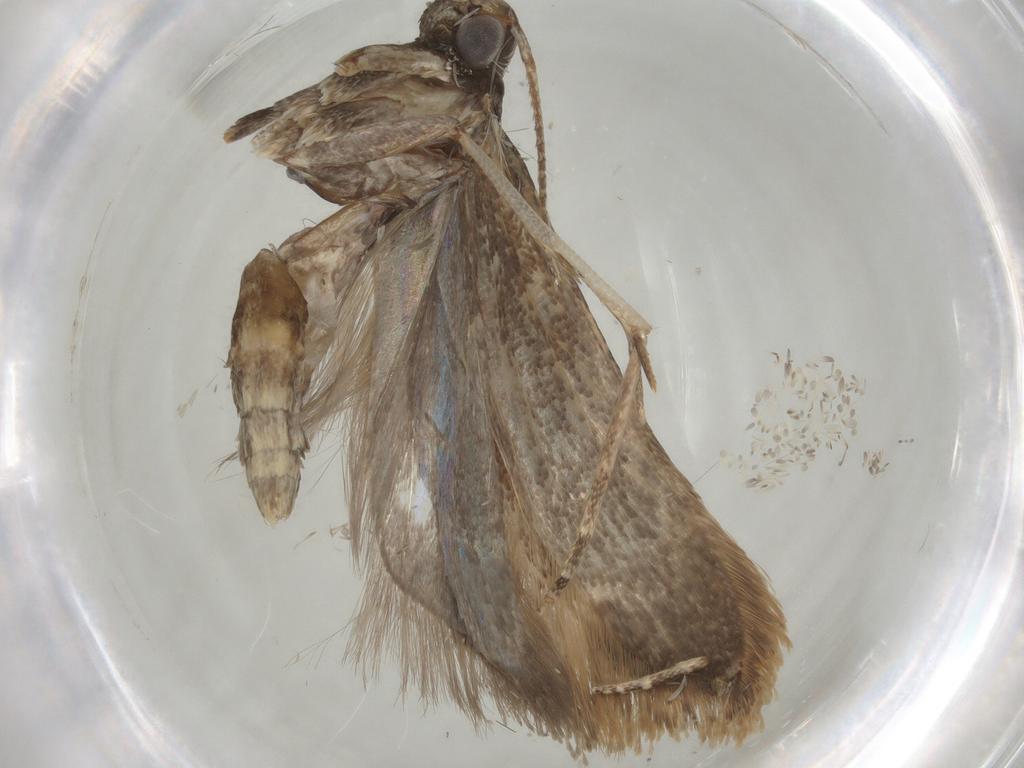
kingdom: Animalia
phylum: Arthropoda
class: Insecta
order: Lepidoptera
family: Gelechiidae
